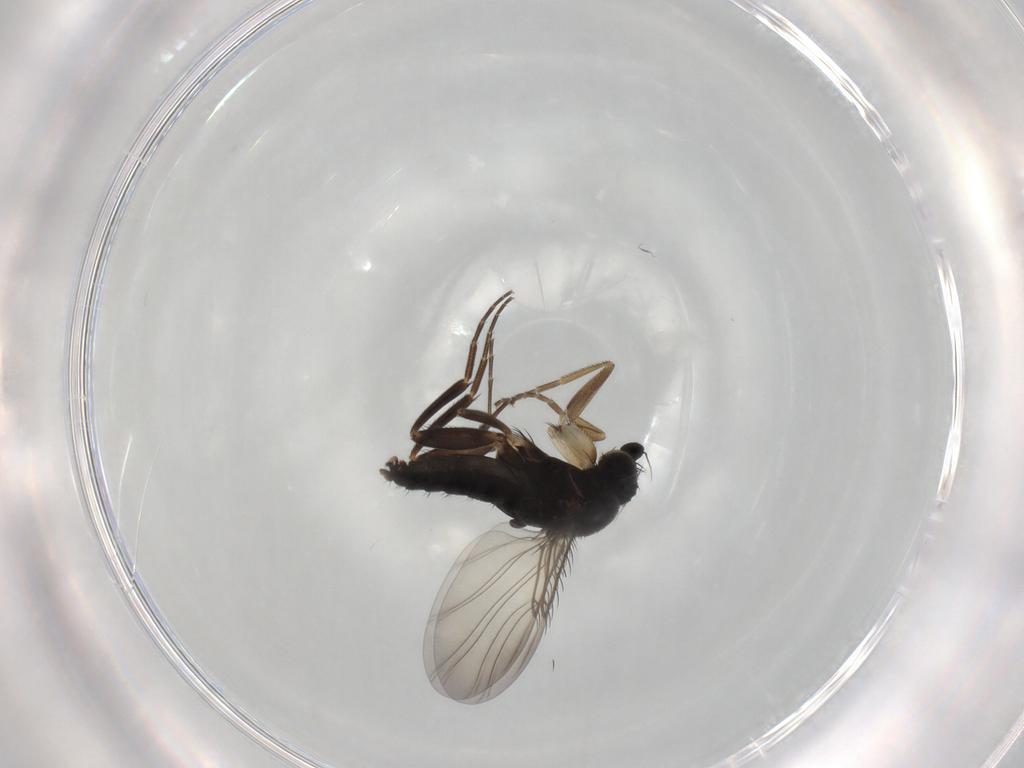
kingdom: Animalia
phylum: Arthropoda
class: Insecta
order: Diptera
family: Phoridae
